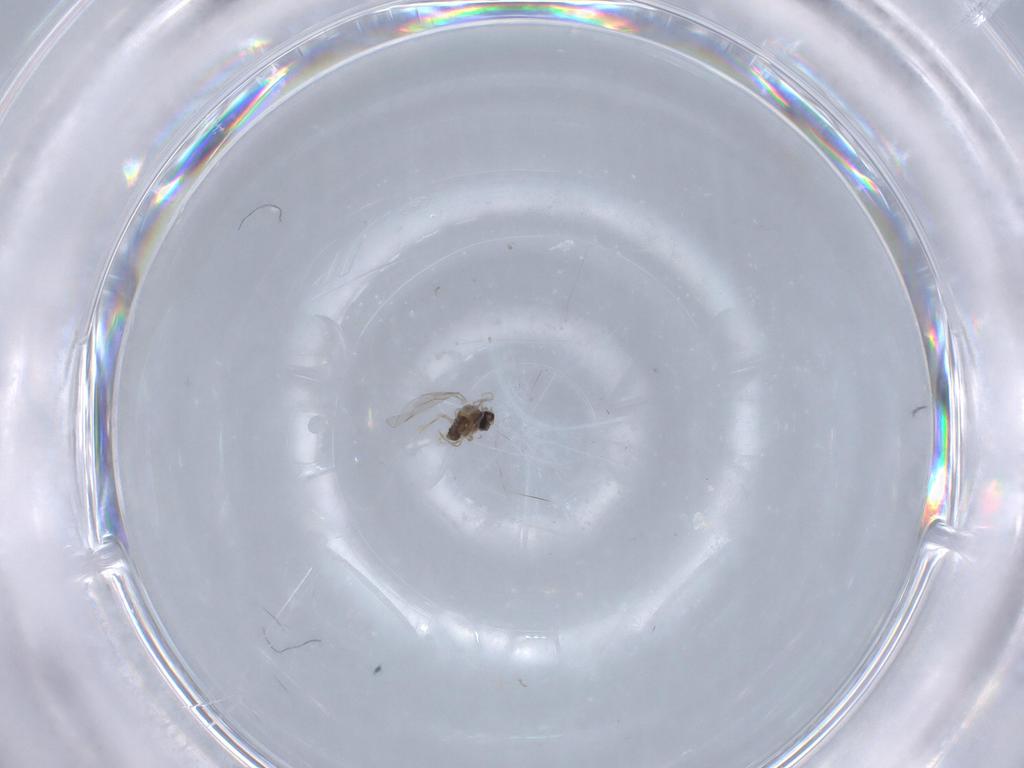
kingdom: Animalia
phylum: Arthropoda
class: Insecta
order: Diptera
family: Cecidomyiidae
